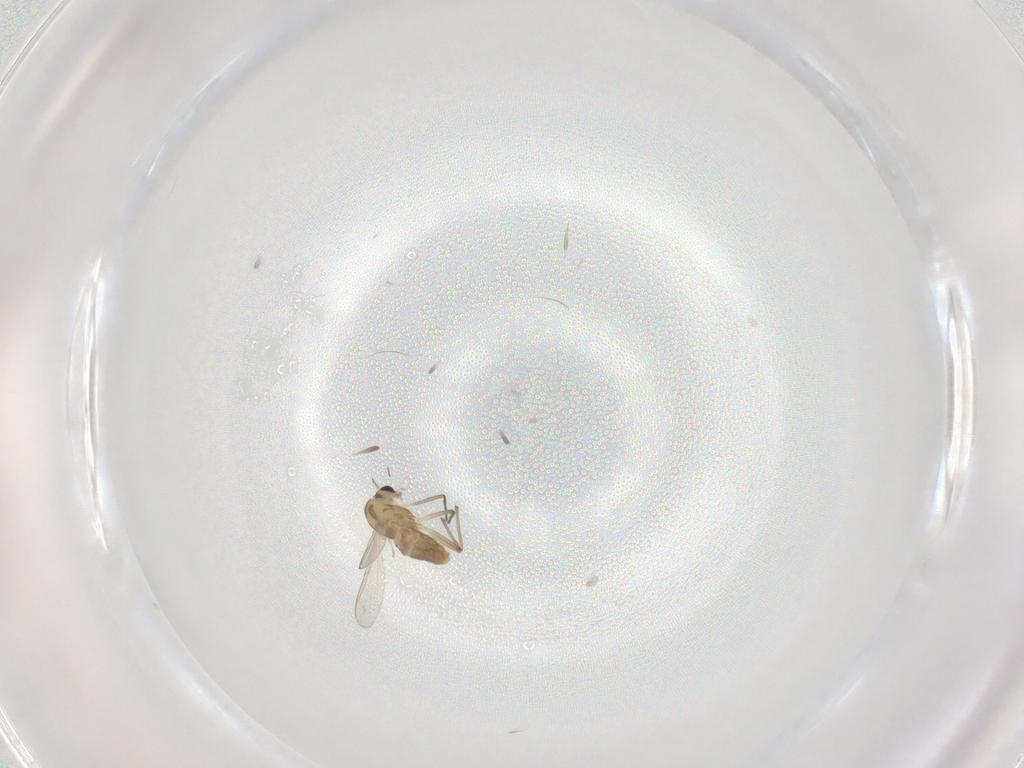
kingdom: Animalia
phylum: Arthropoda
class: Insecta
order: Diptera
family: Chironomidae
